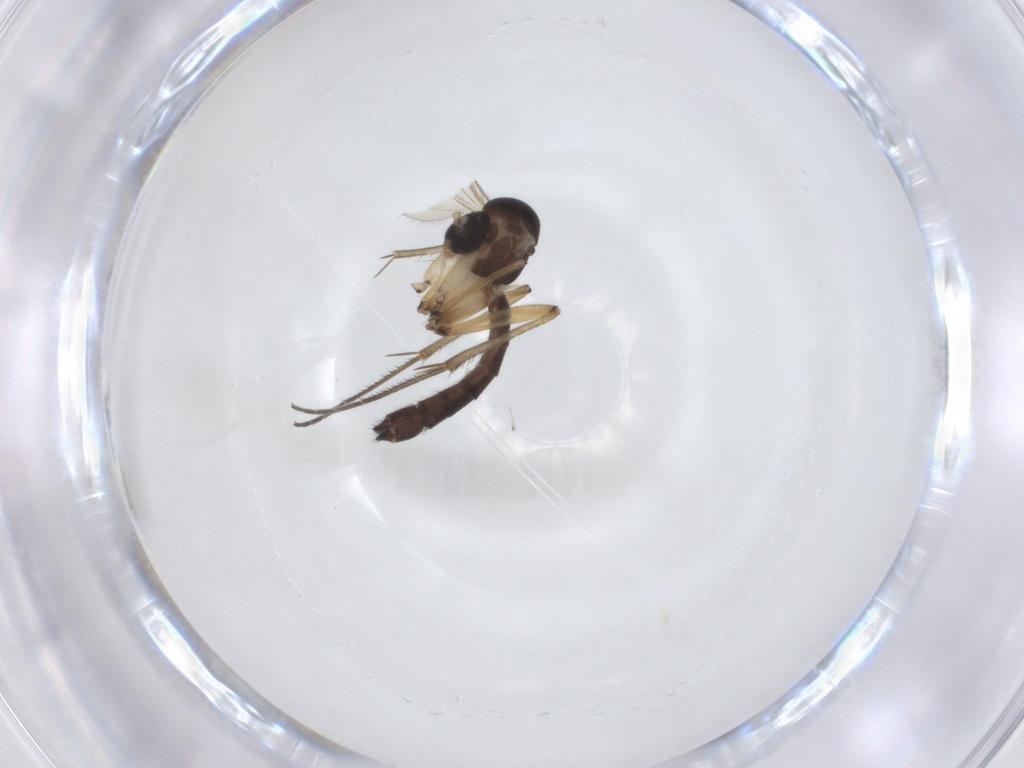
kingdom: Animalia
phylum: Arthropoda
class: Insecta
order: Diptera
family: Mycetophilidae
